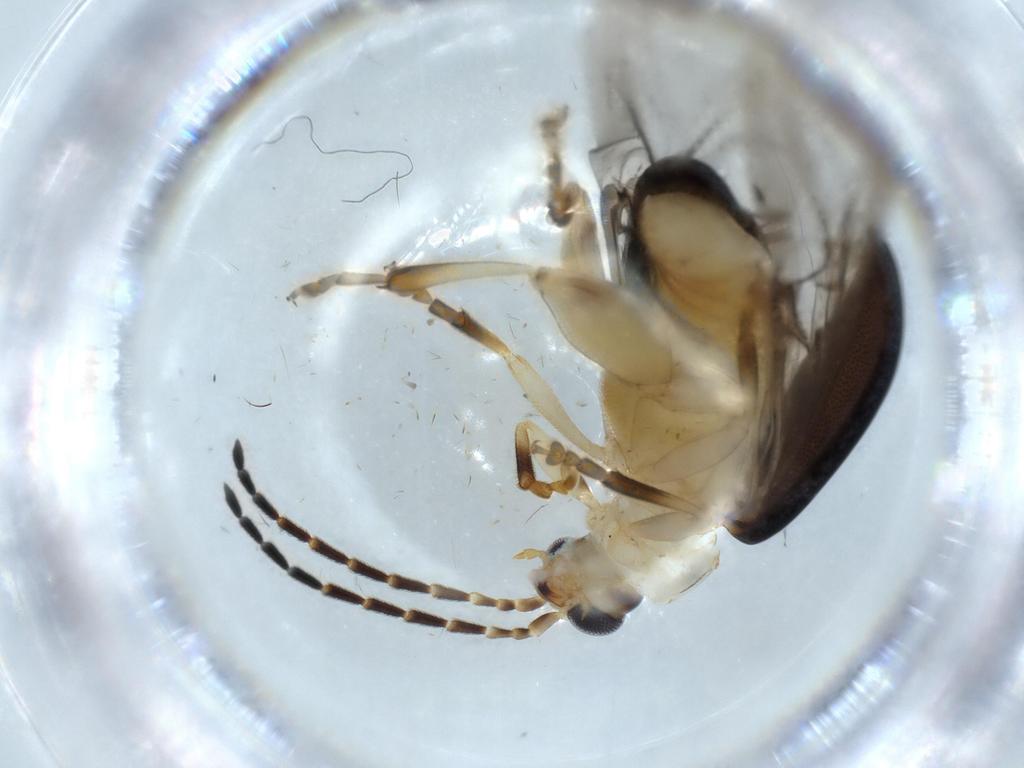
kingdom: Animalia
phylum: Arthropoda
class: Insecta
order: Coleoptera
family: Chrysomelidae
